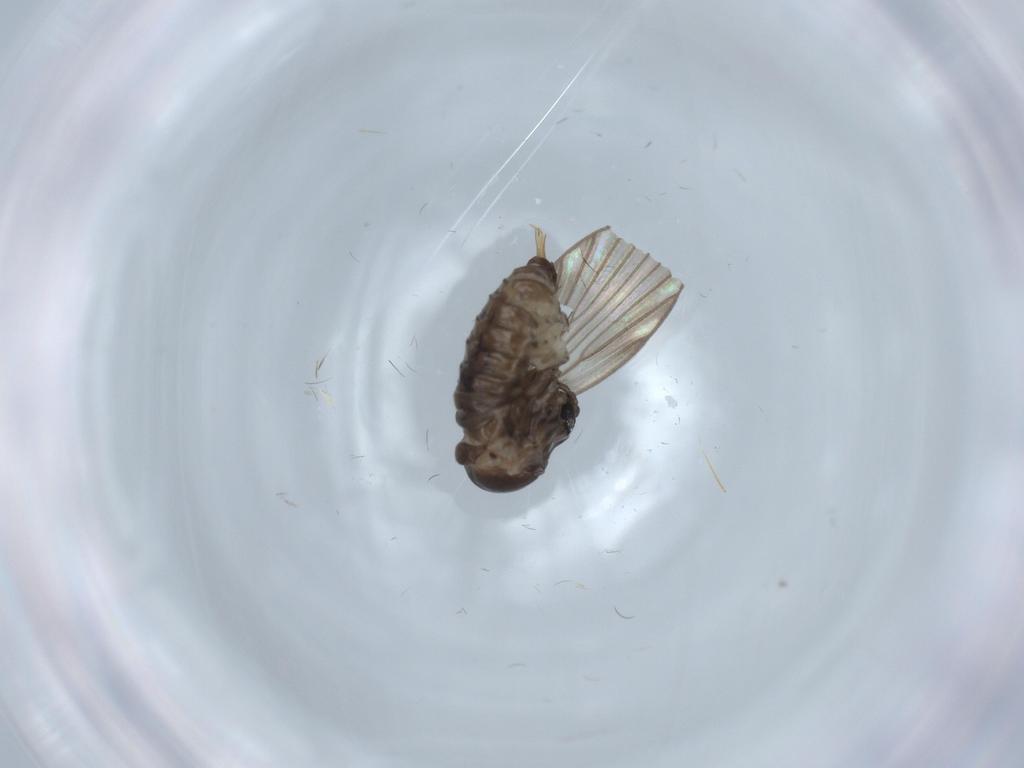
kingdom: Animalia
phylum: Arthropoda
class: Insecta
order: Diptera
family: Psychodidae
